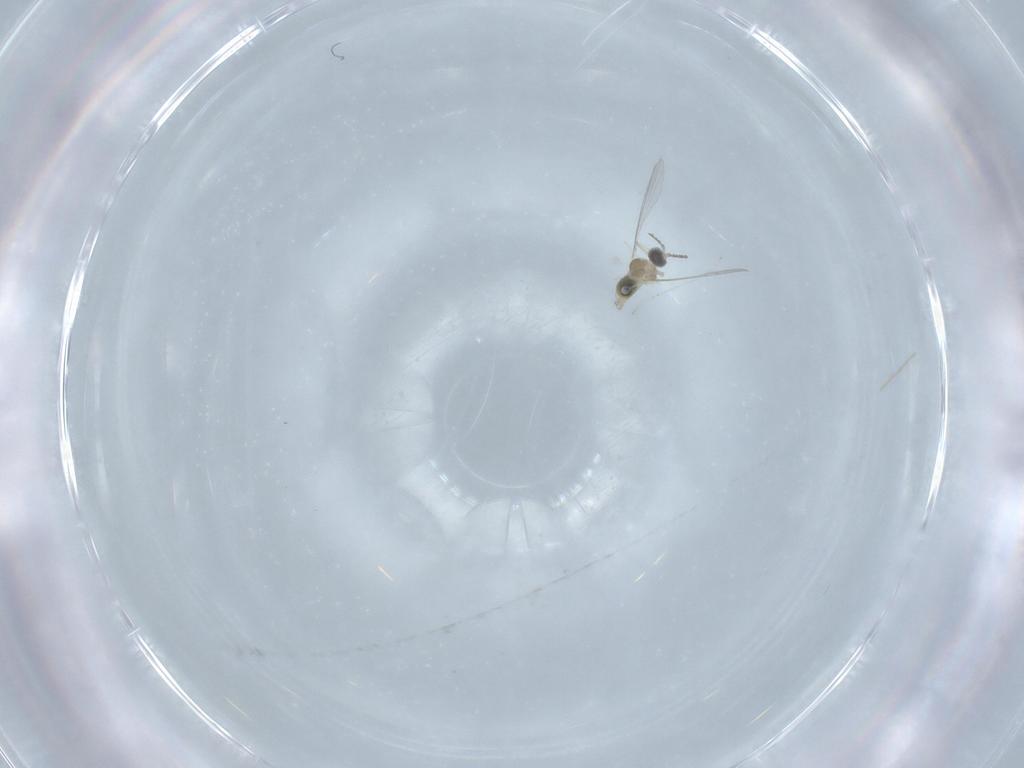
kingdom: Animalia
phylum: Arthropoda
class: Insecta
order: Diptera
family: Cecidomyiidae
